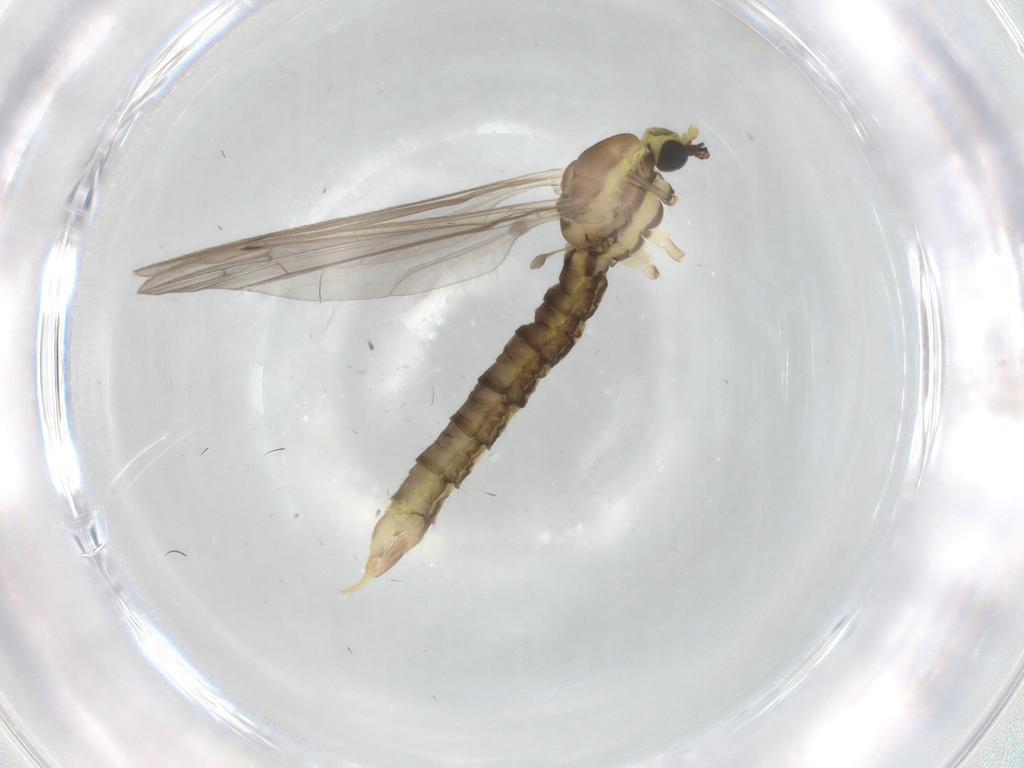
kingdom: Animalia
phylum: Arthropoda
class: Insecta
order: Diptera
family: Limoniidae
